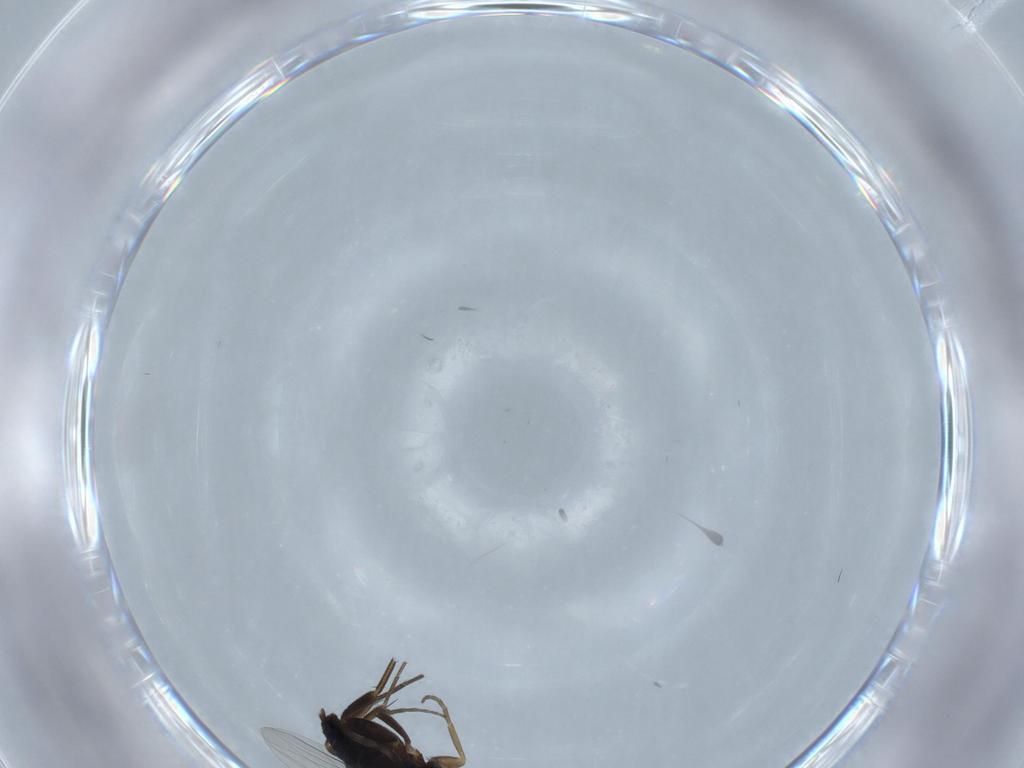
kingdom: Animalia
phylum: Arthropoda
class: Insecta
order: Diptera
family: Phoridae
